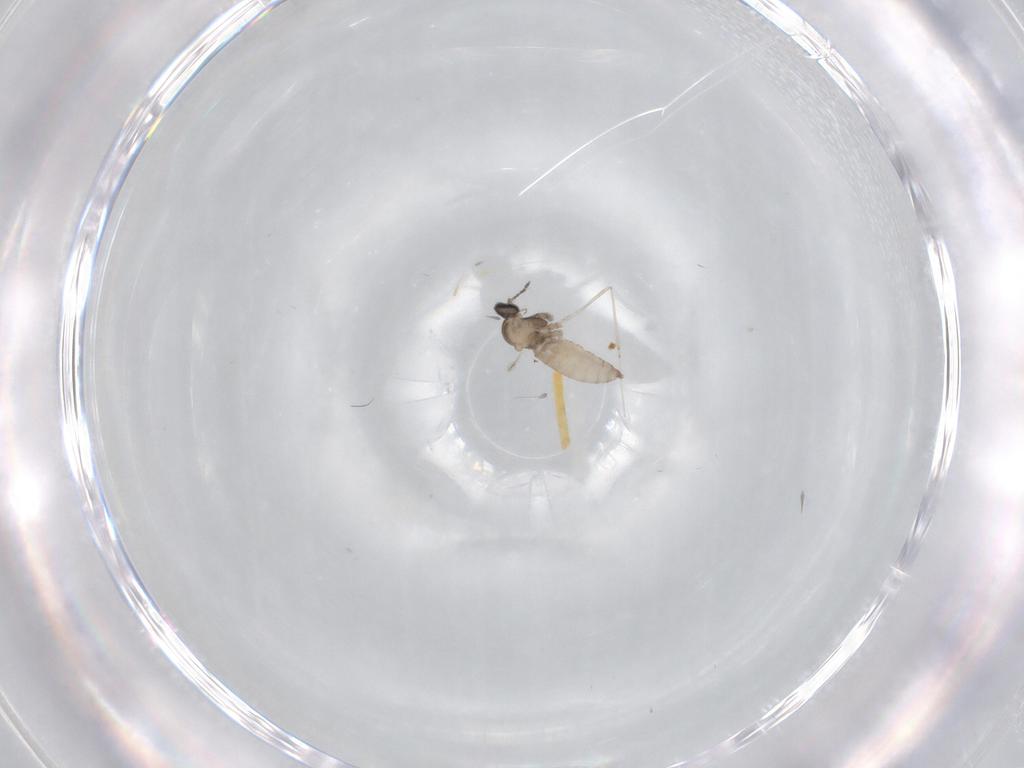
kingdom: Animalia
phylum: Arthropoda
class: Insecta
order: Diptera
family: Cecidomyiidae
